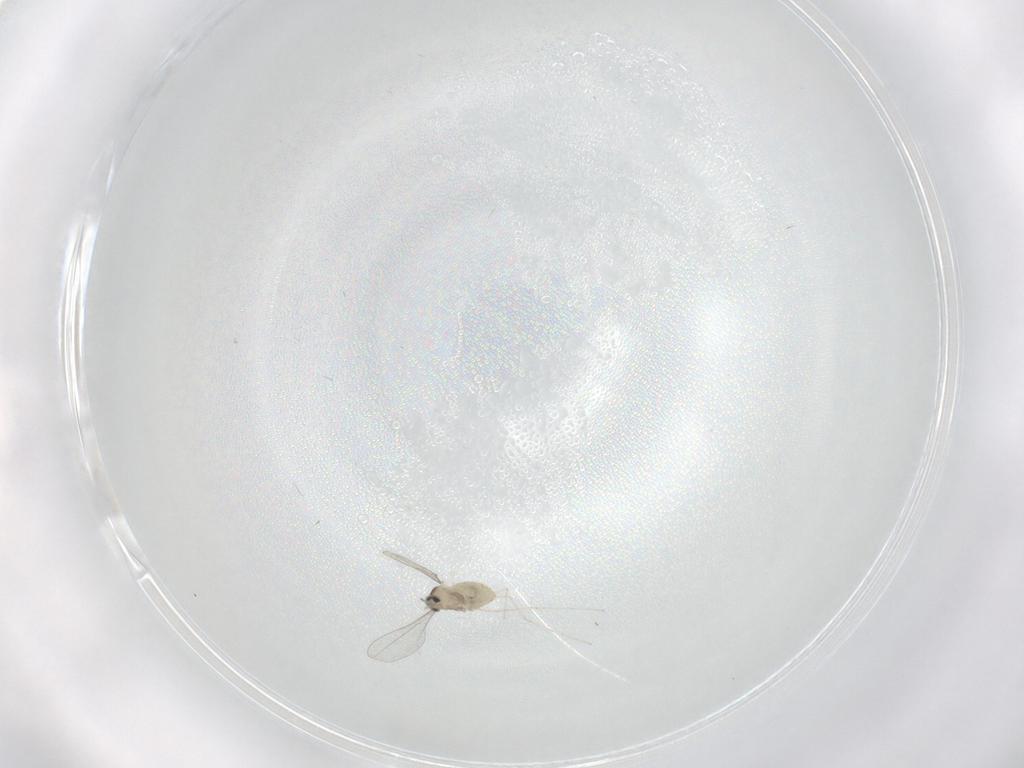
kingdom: Animalia
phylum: Arthropoda
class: Insecta
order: Diptera
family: Cecidomyiidae
